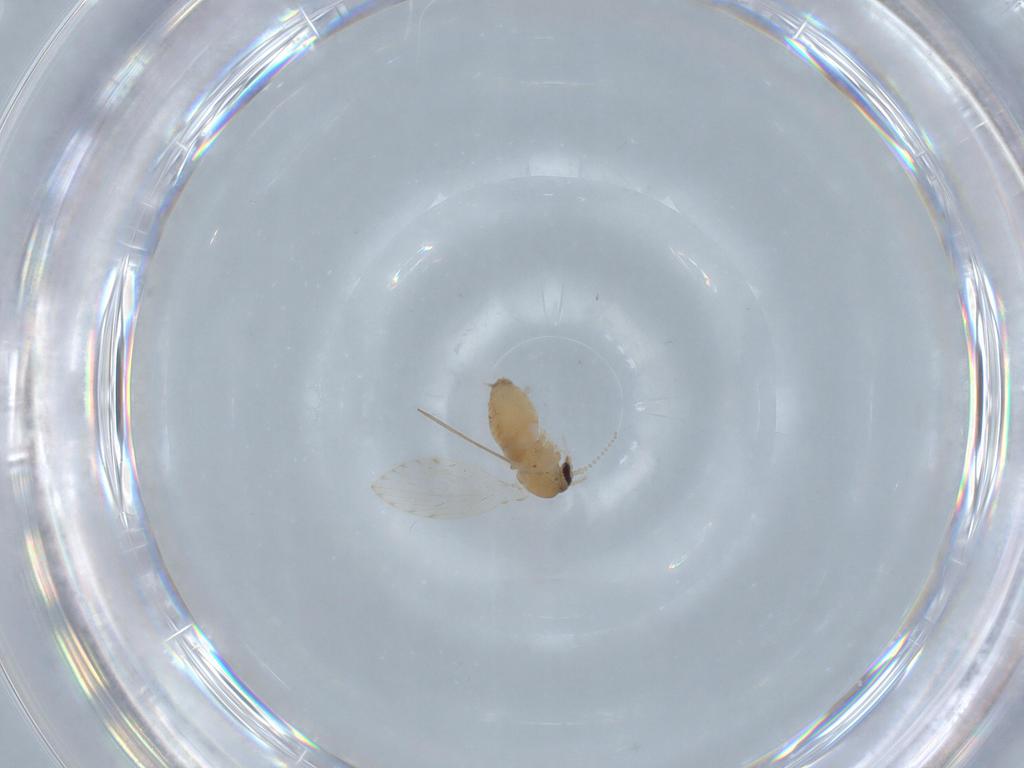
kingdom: Animalia
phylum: Arthropoda
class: Insecta
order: Diptera
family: Psychodidae
